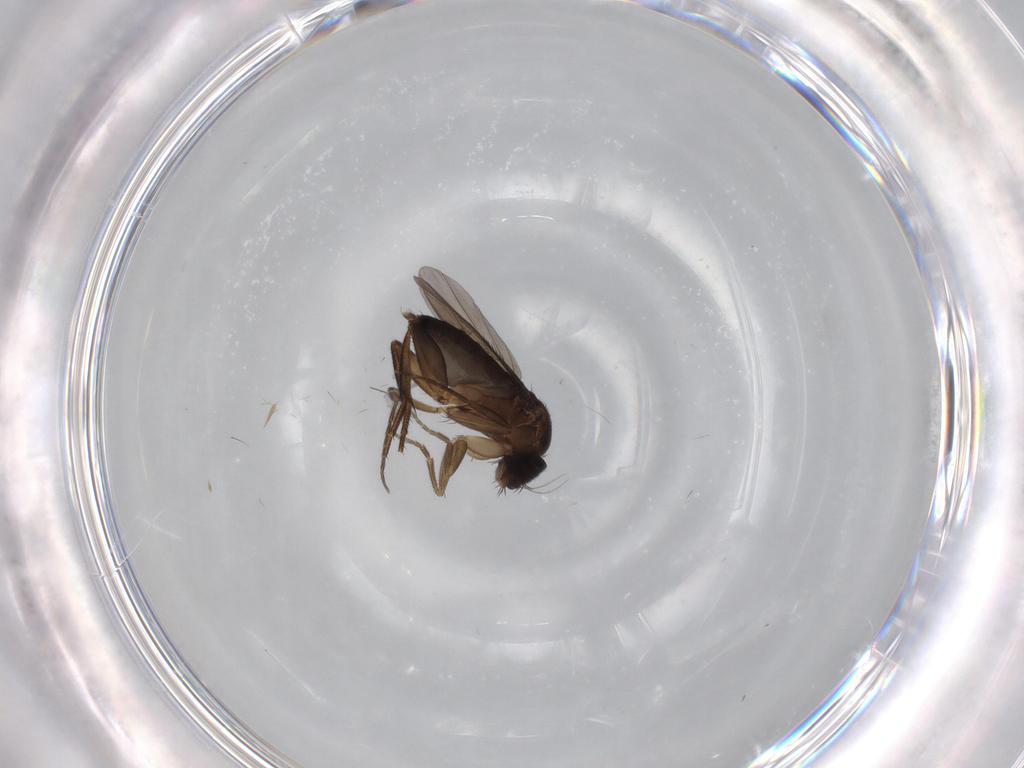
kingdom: Animalia
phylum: Arthropoda
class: Insecta
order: Diptera
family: Phoridae
